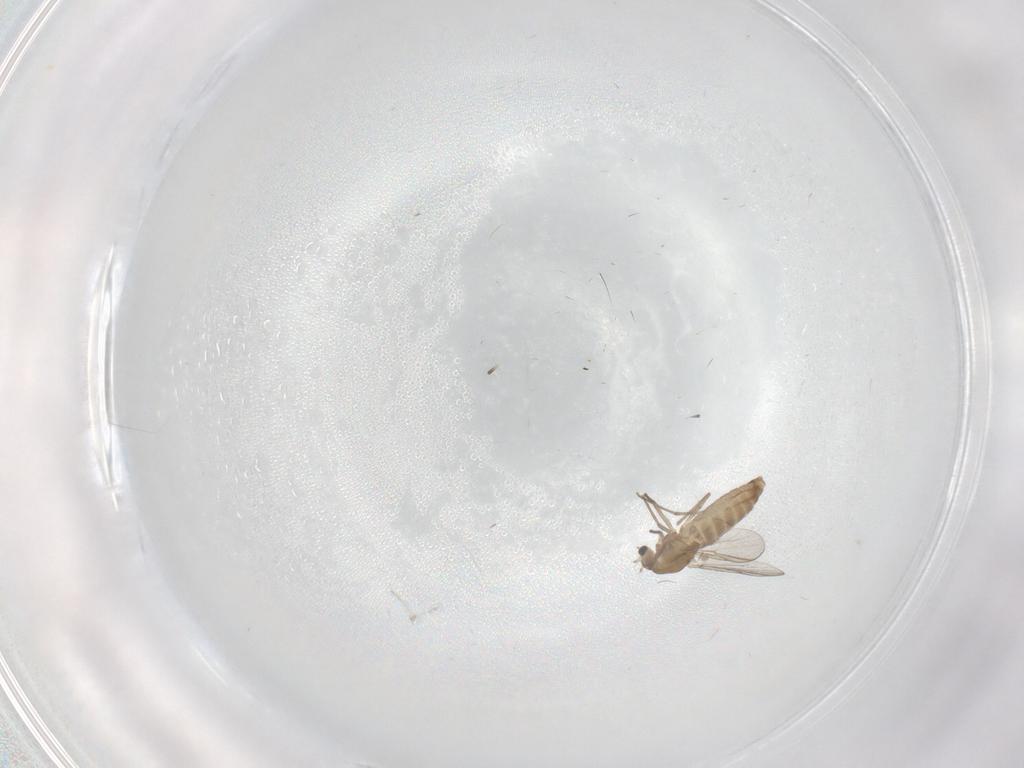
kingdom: Animalia
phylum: Arthropoda
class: Insecta
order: Diptera
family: Chironomidae
